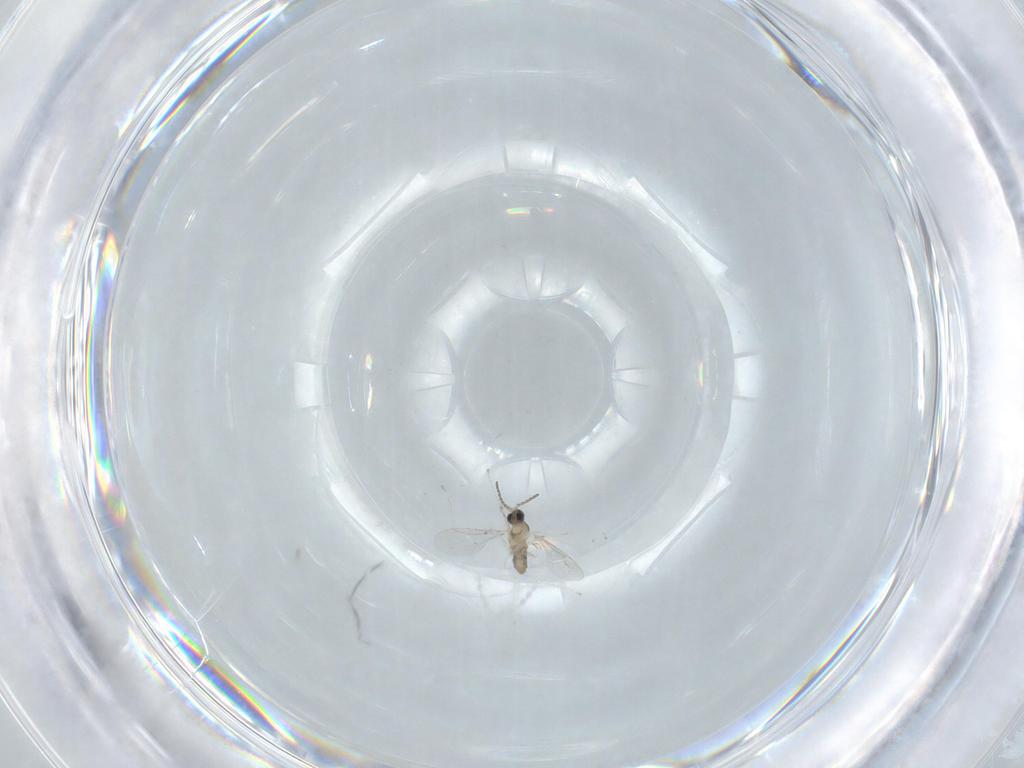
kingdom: Animalia
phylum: Arthropoda
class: Insecta
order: Diptera
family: Cecidomyiidae
